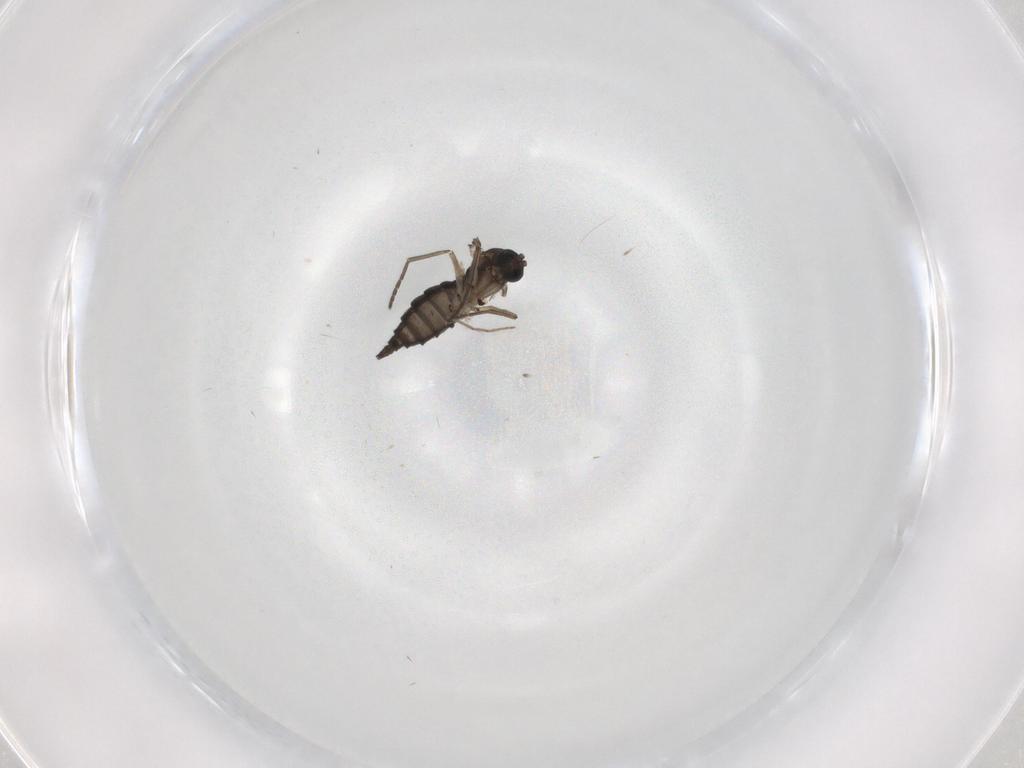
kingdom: Animalia
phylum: Arthropoda
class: Insecta
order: Diptera
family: Sciaridae
